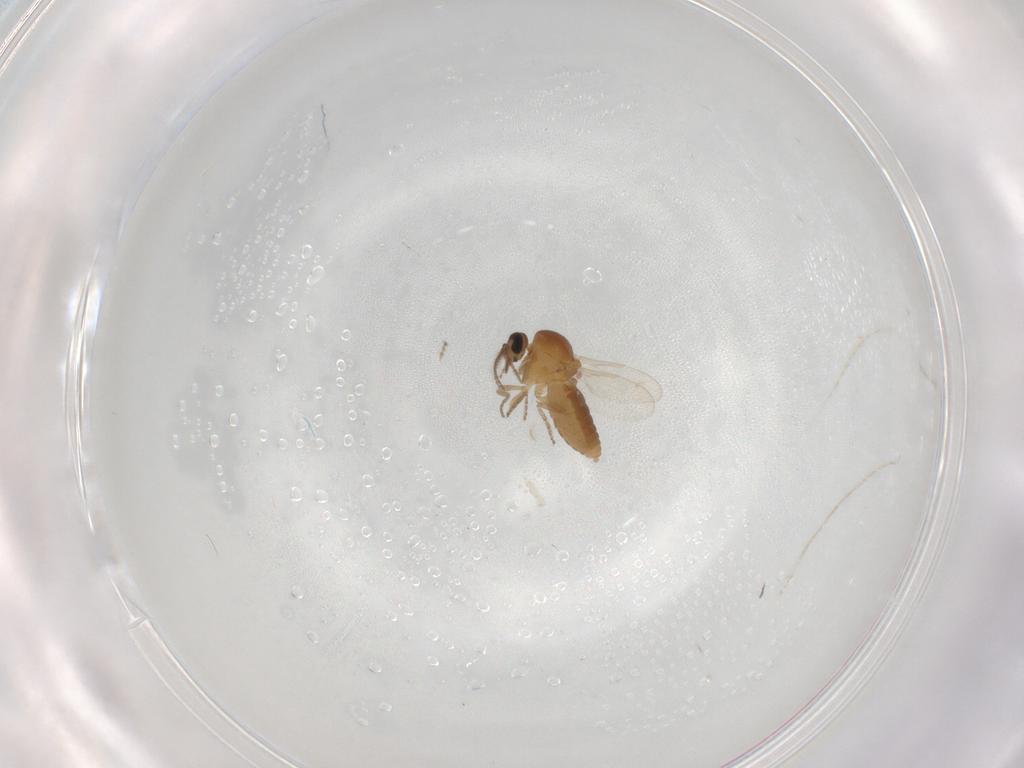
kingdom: Animalia
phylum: Arthropoda
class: Insecta
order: Diptera
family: Ceratopogonidae
